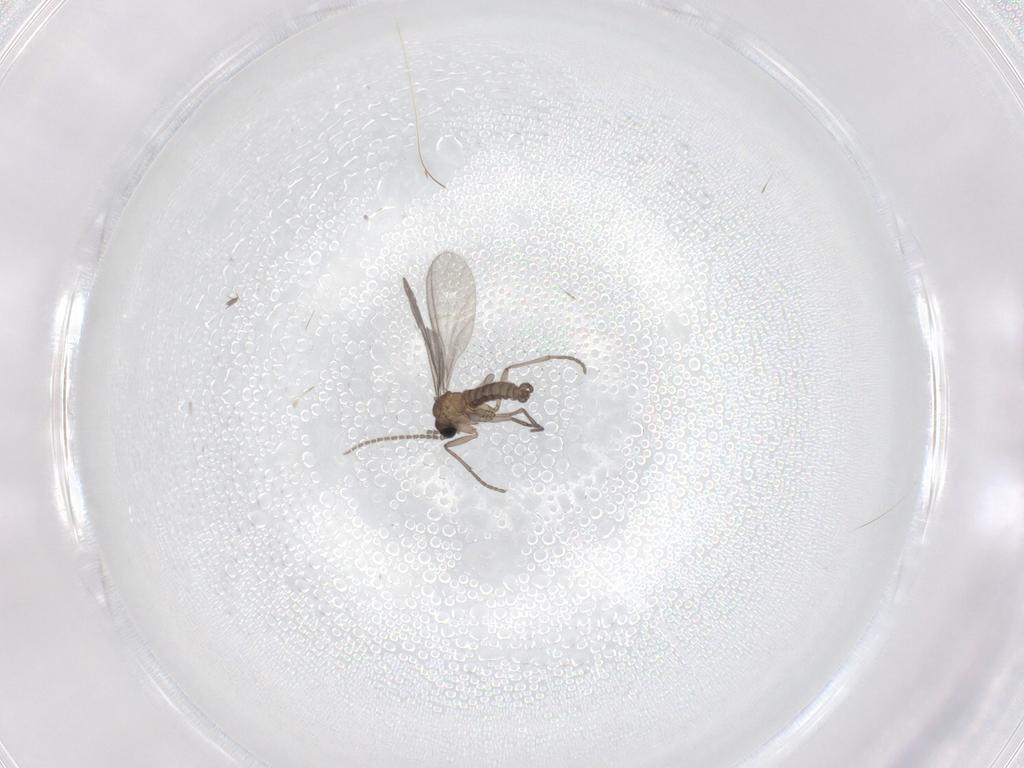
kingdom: Animalia
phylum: Arthropoda
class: Insecta
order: Diptera
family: Sciaridae
